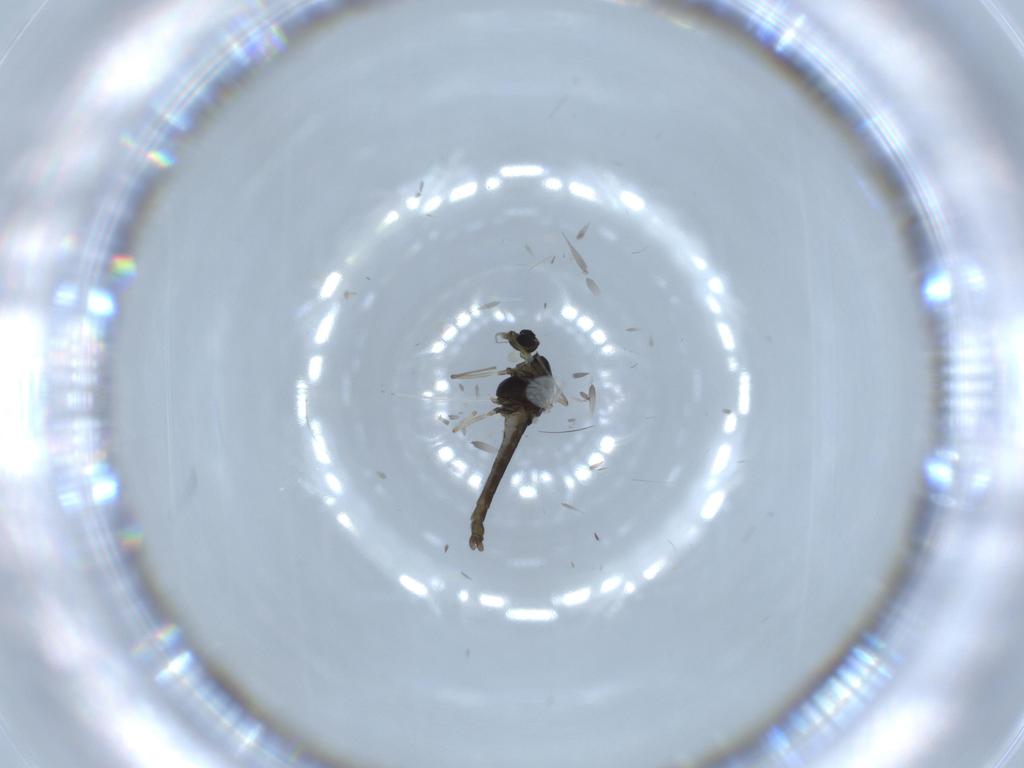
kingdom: Animalia
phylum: Arthropoda
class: Insecta
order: Diptera
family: Chironomidae
